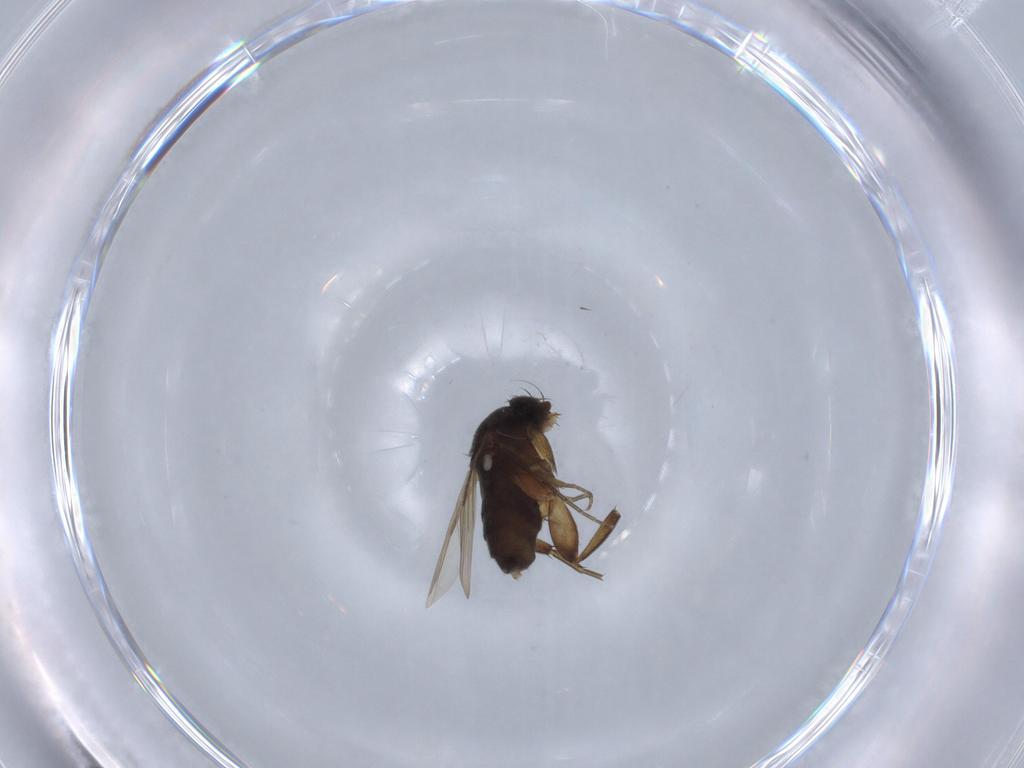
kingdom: Animalia
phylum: Arthropoda
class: Insecta
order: Diptera
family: Phoridae
